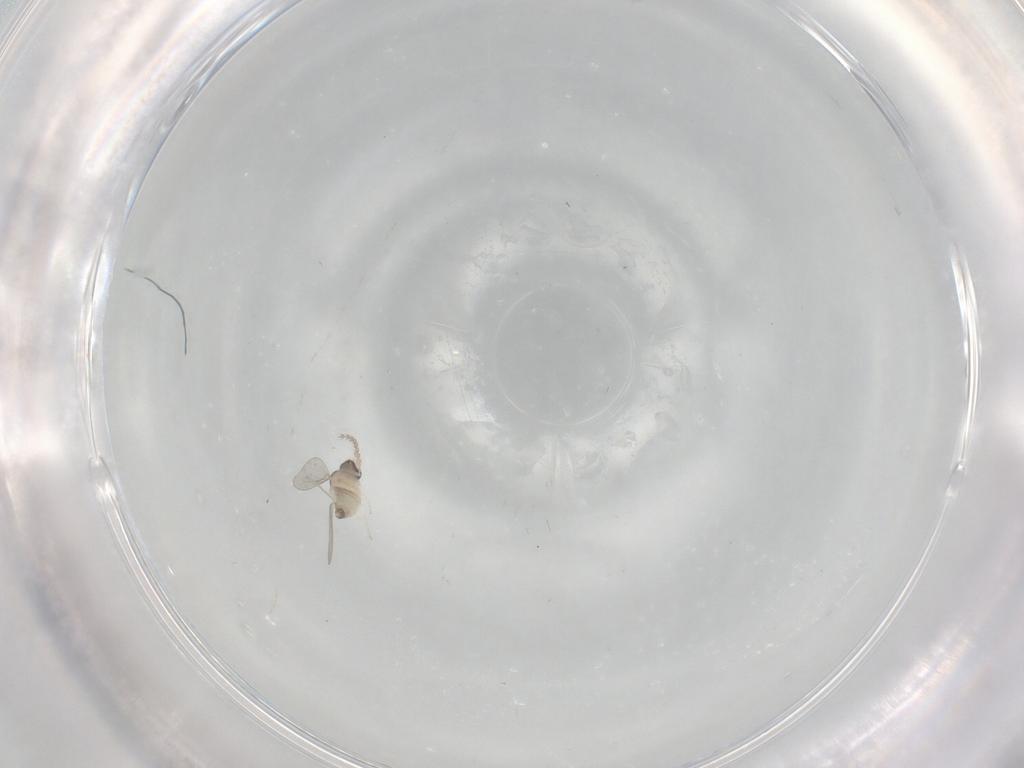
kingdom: Animalia
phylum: Arthropoda
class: Insecta
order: Diptera
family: Cecidomyiidae
